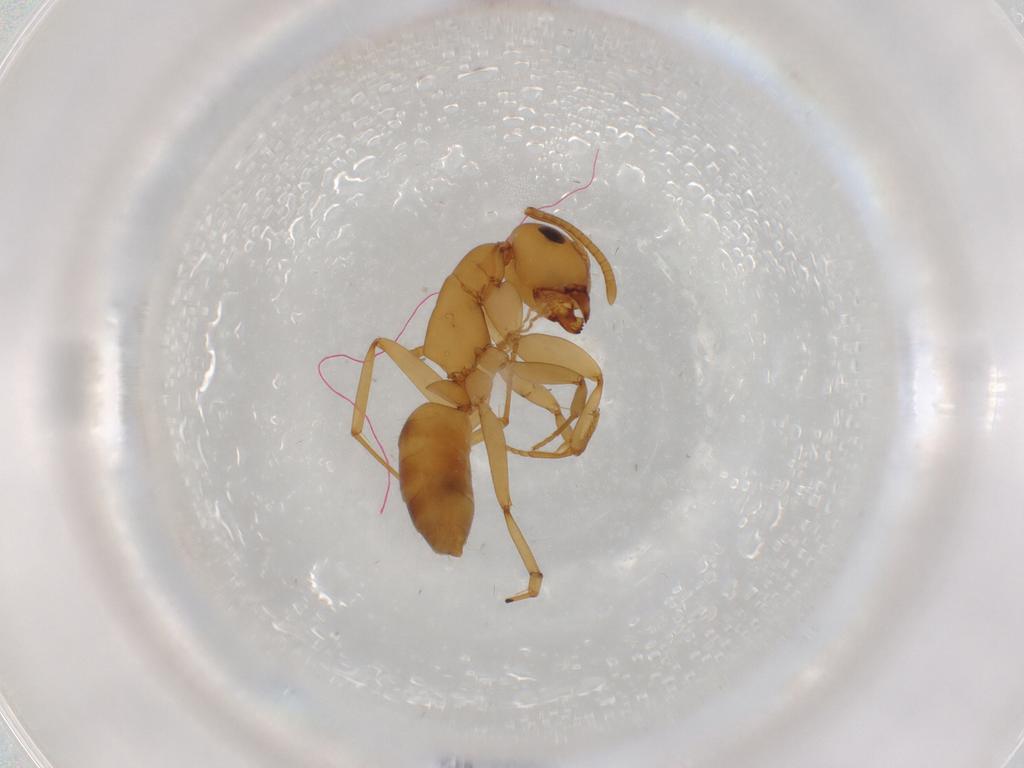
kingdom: Animalia
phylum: Arthropoda
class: Insecta
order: Hymenoptera
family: Formicidae
